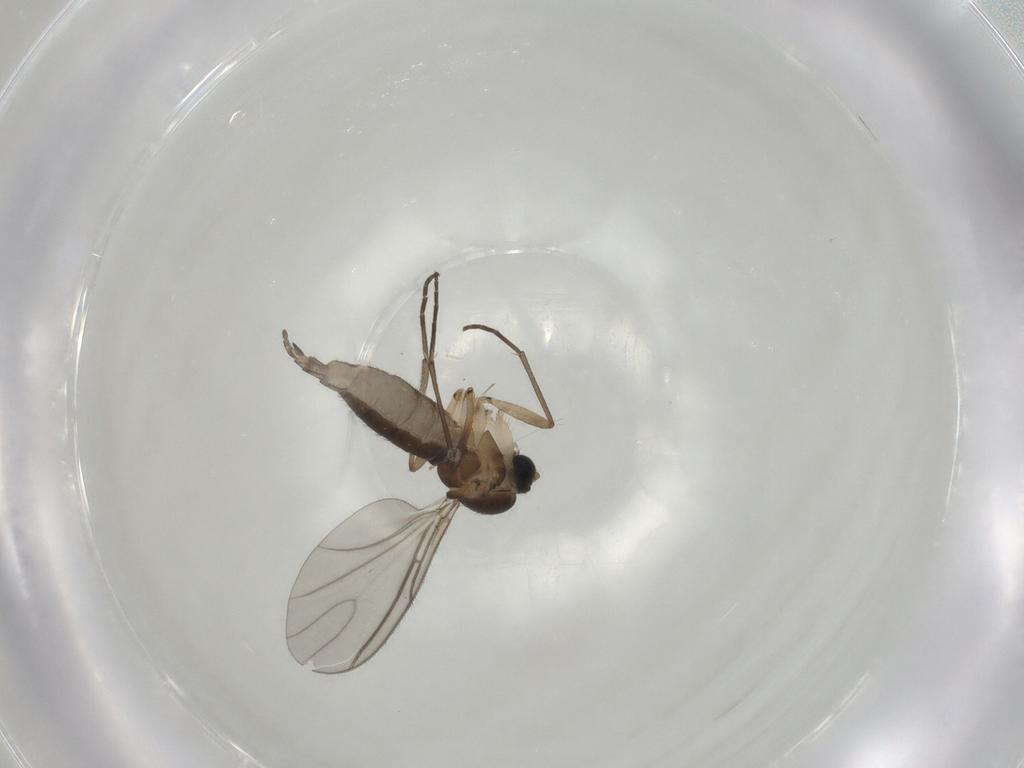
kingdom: Animalia
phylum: Arthropoda
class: Insecta
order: Diptera
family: Sciaridae
